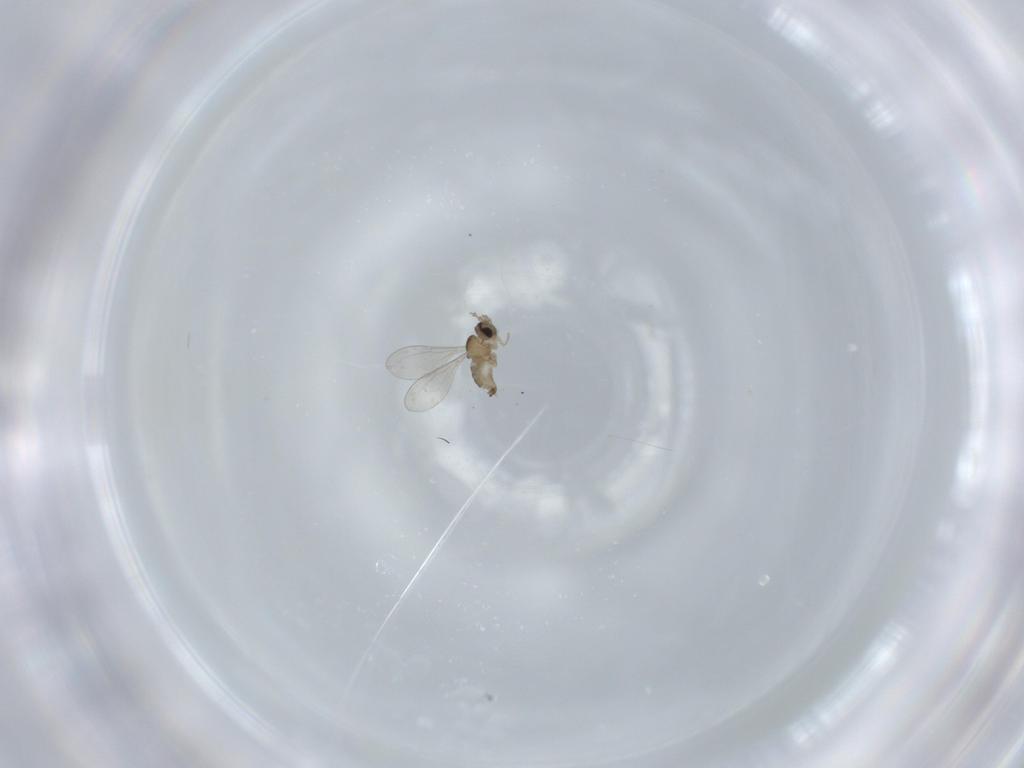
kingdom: Animalia
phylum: Arthropoda
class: Insecta
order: Diptera
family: Cecidomyiidae
